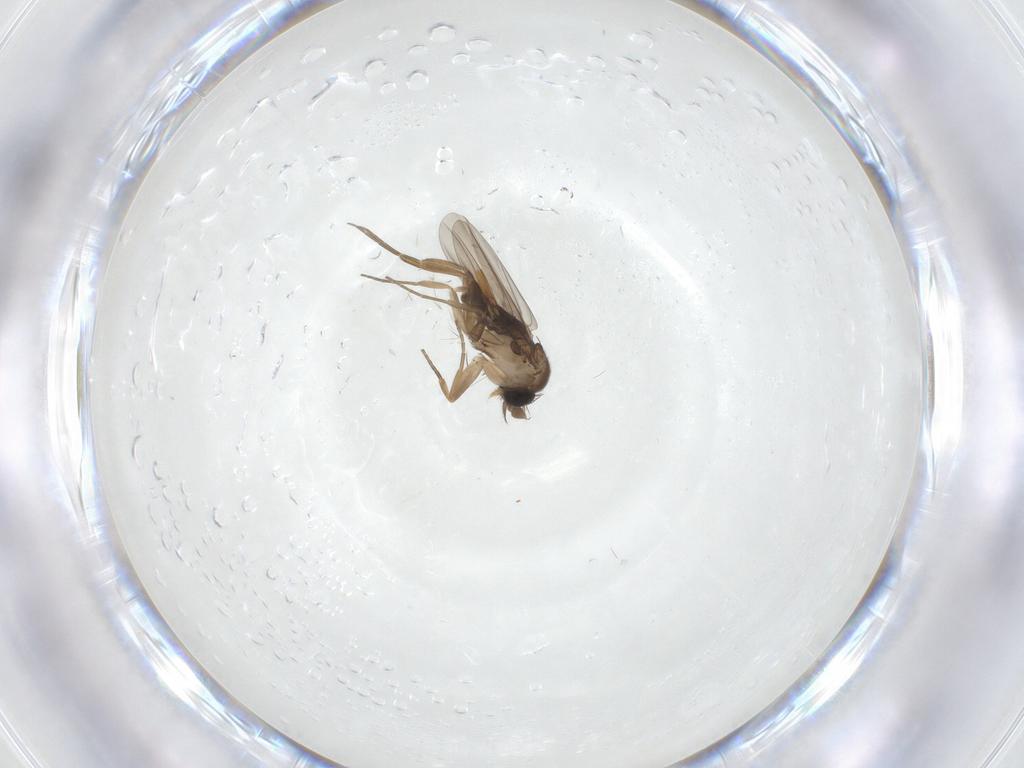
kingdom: Animalia
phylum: Arthropoda
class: Insecta
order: Diptera
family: Phoridae
